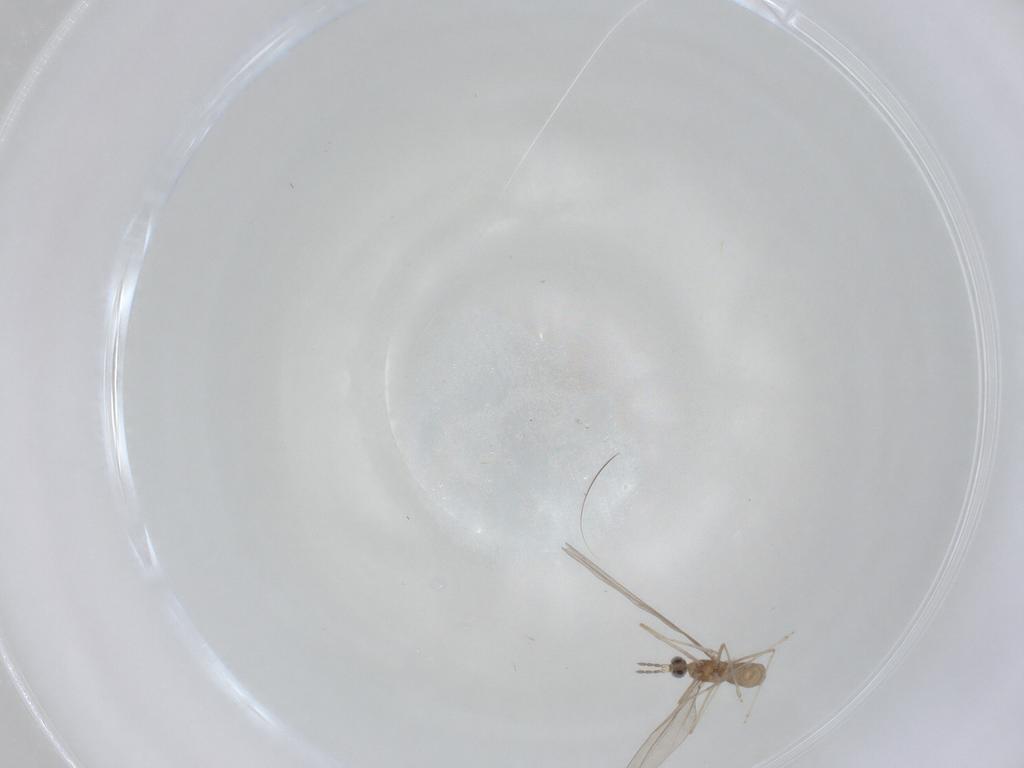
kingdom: Animalia
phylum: Arthropoda
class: Insecta
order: Diptera
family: Cecidomyiidae
